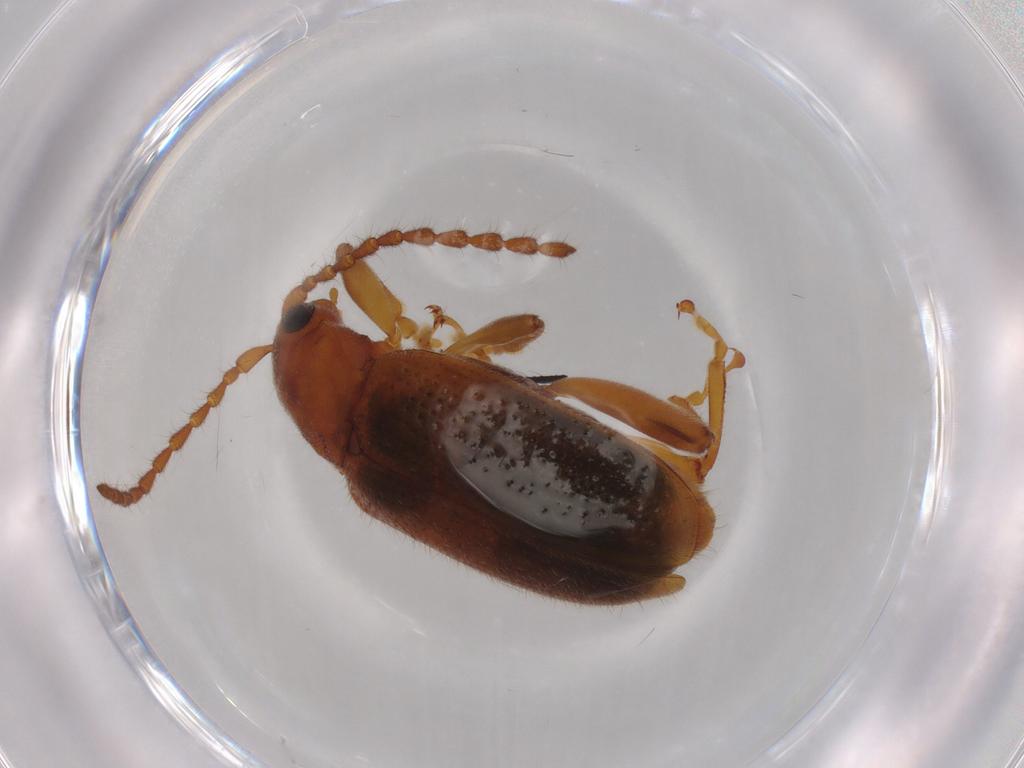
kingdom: Animalia
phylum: Arthropoda
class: Insecta
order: Coleoptera
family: Chrysomelidae
